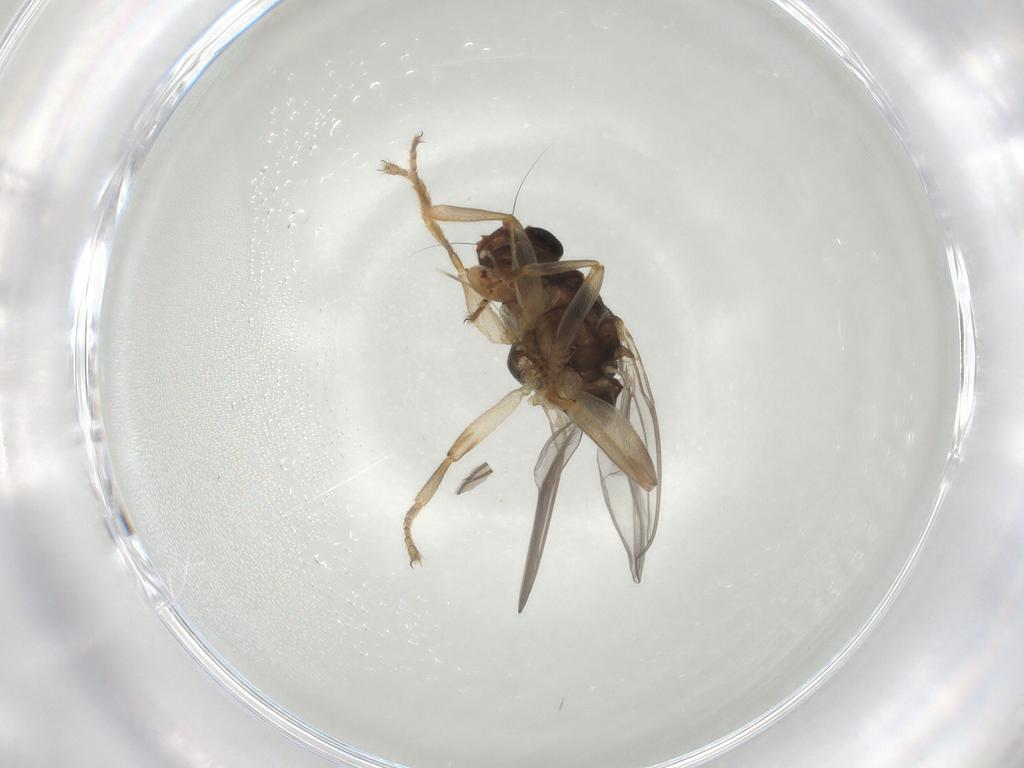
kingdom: Animalia
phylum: Arthropoda
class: Insecta
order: Diptera
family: Sciaridae
